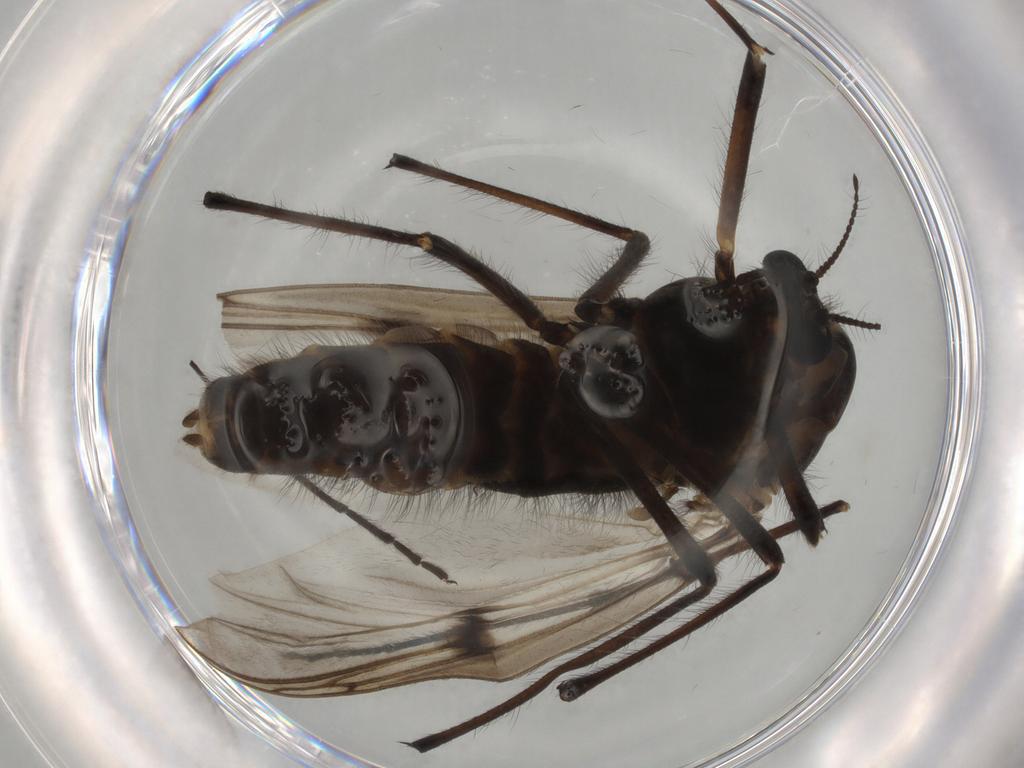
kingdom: Animalia
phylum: Arthropoda
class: Insecta
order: Diptera
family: Chironomidae
